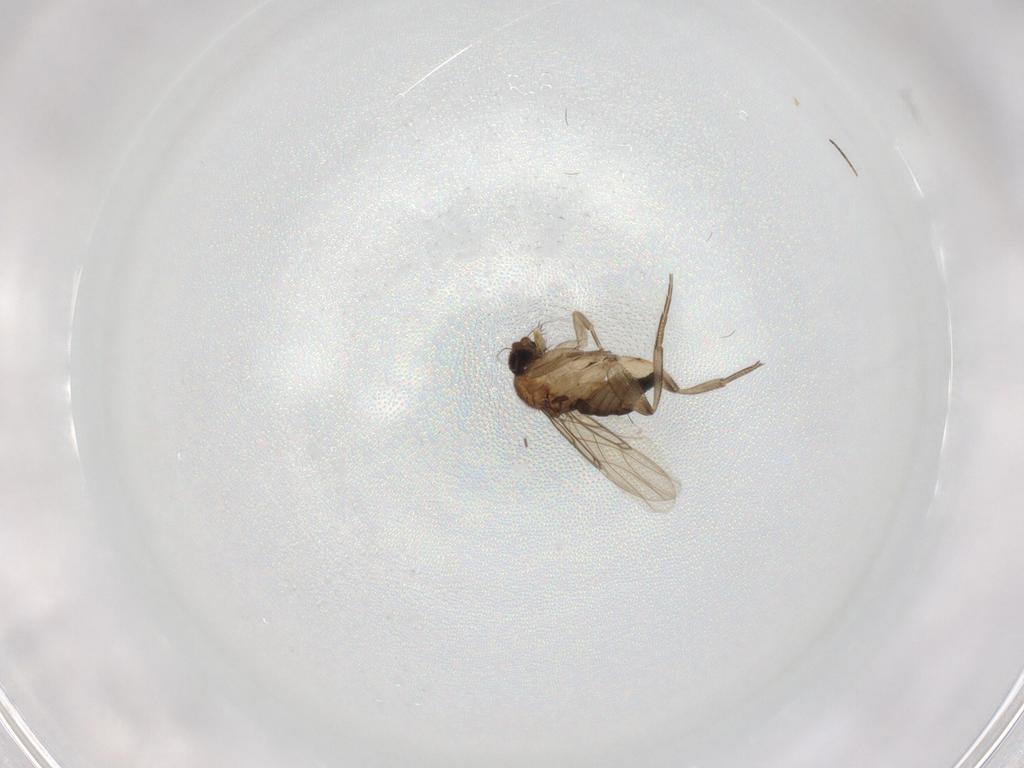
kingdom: Animalia
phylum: Arthropoda
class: Insecta
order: Diptera
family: Phoridae
